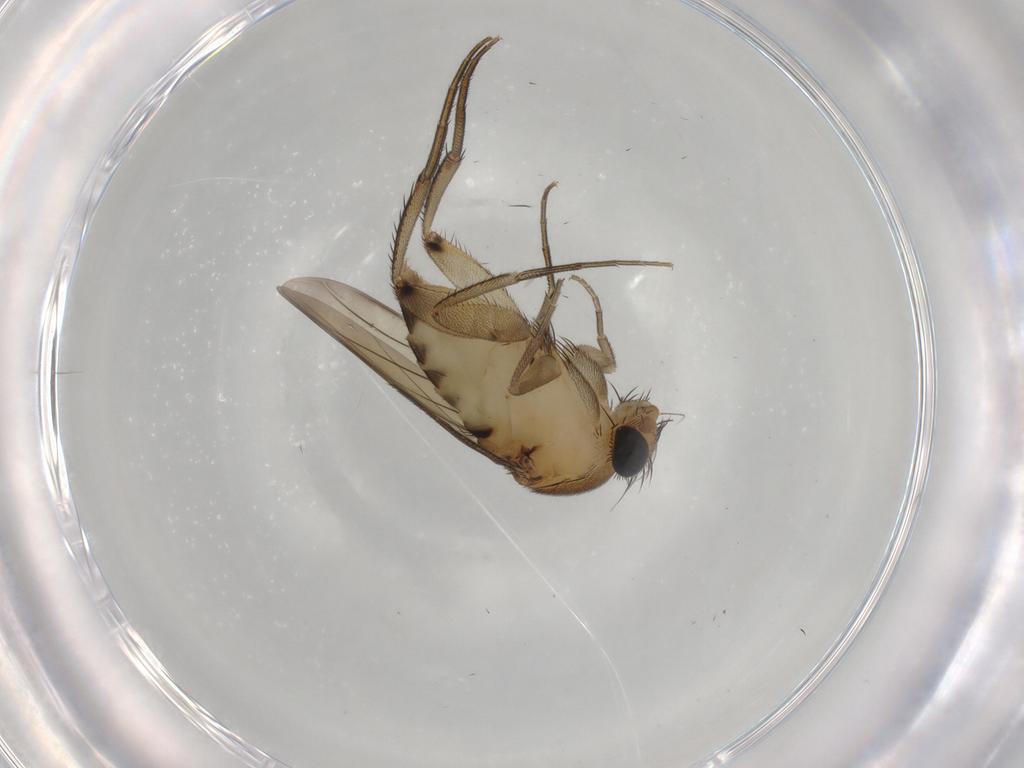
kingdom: Animalia
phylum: Arthropoda
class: Insecta
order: Diptera
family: Phoridae
